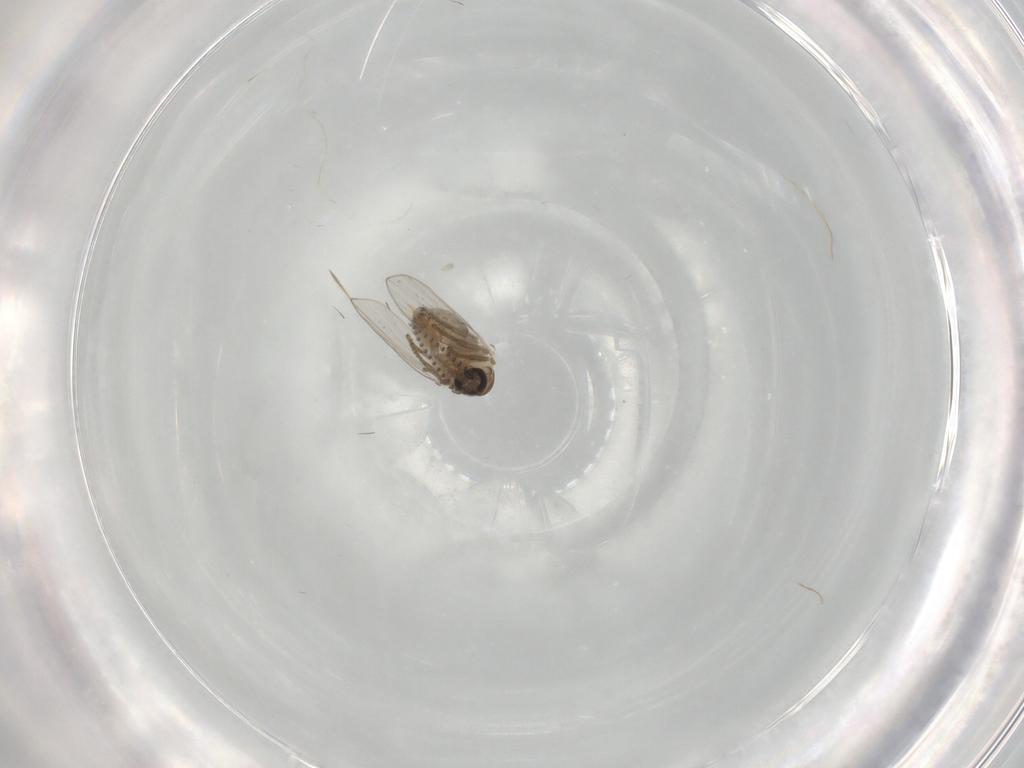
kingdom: Animalia
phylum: Arthropoda
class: Insecta
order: Diptera
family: Psychodidae
